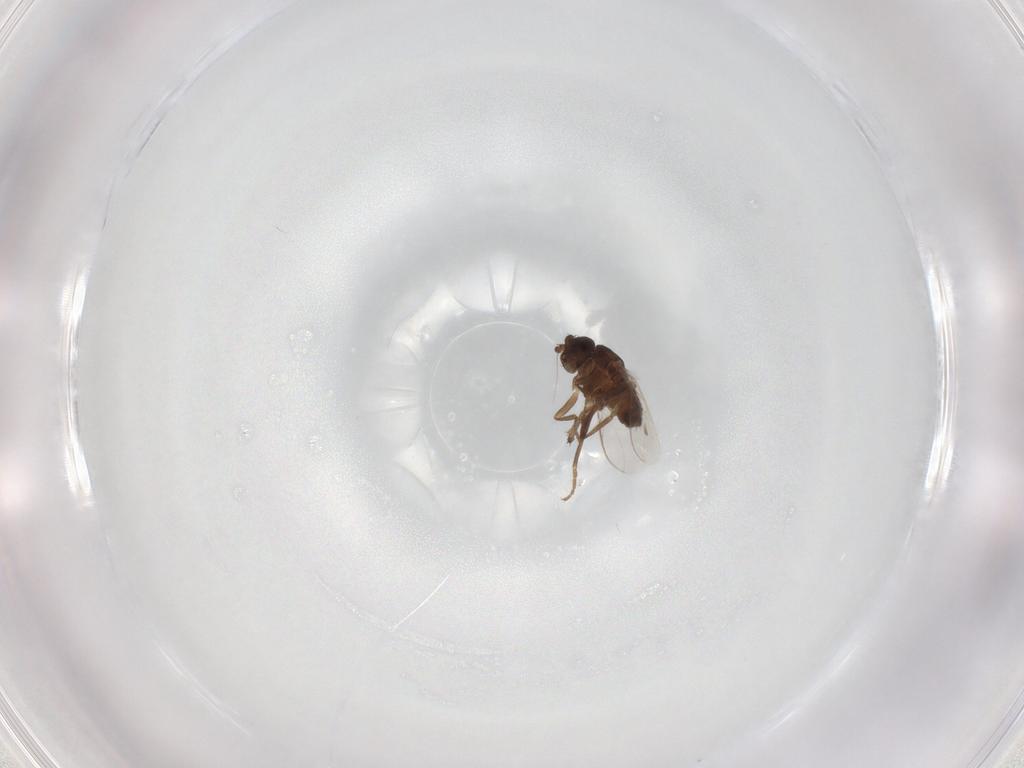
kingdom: Animalia
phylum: Arthropoda
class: Insecta
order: Diptera
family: Sphaeroceridae
